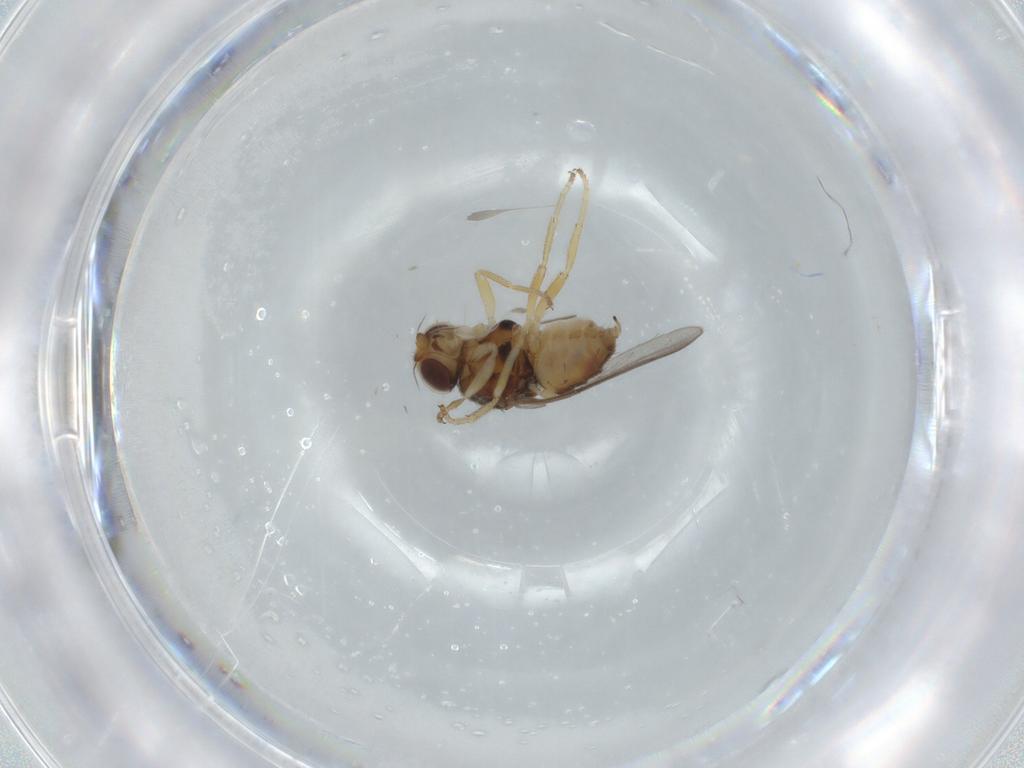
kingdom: Animalia
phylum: Arthropoda
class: Insecta
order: Diptera
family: Chloropidae
